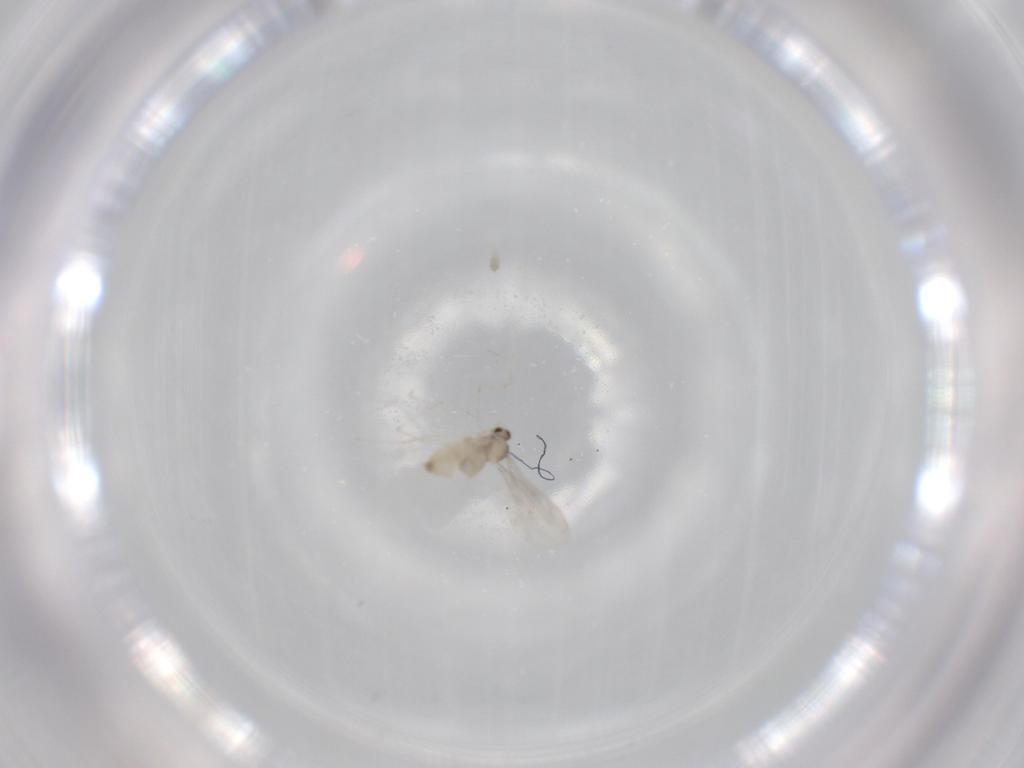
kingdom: Animalia
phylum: Arthropoda
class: Insecta
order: Diptera
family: Cecidomyiidae
